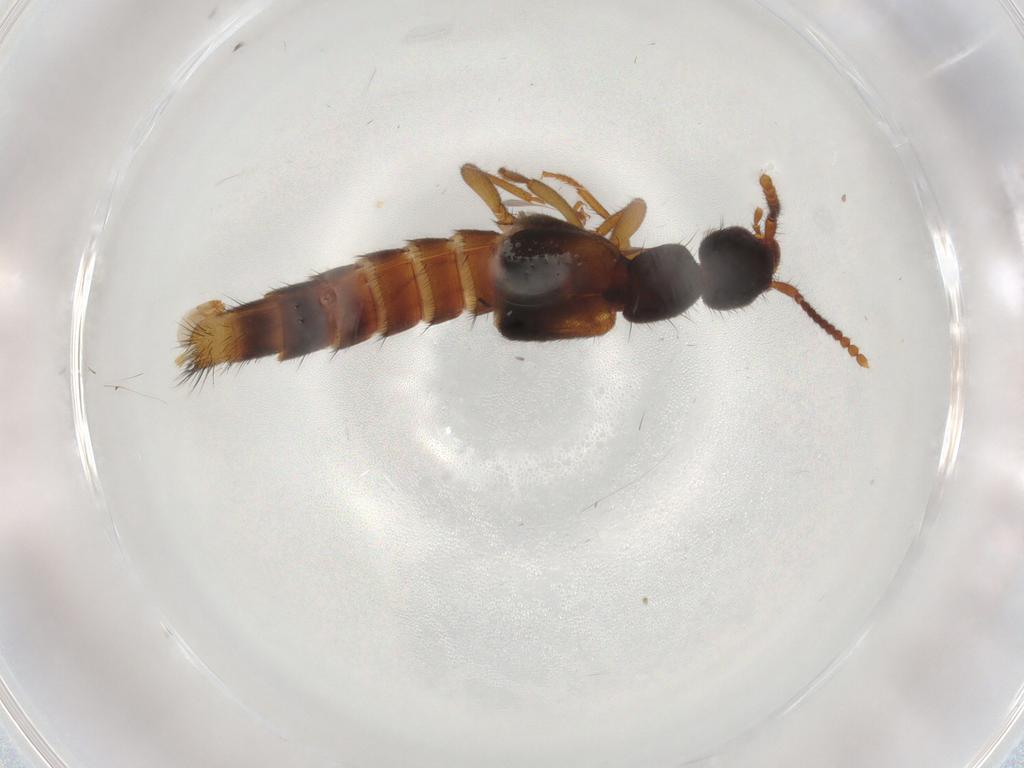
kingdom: Animalia
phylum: Arthropoda
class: Insecta
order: Coleoptera
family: Staphylinidae
